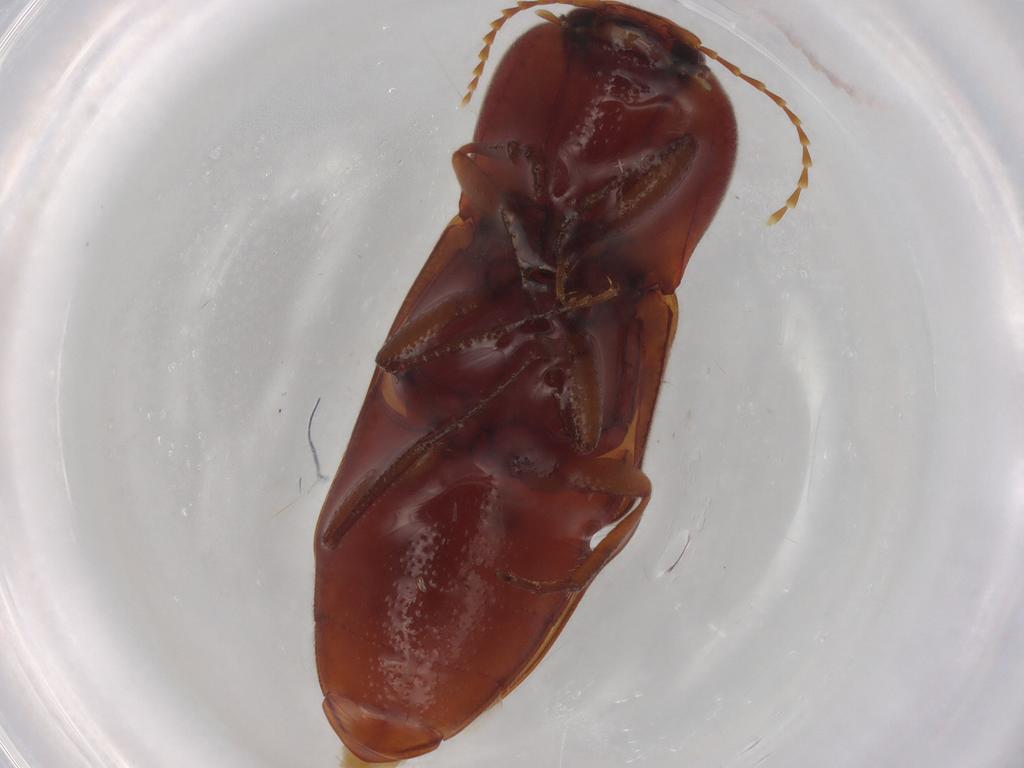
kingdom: Animalia
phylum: Arthropoda
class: Insecta
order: Coleoptera
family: Elateridae
